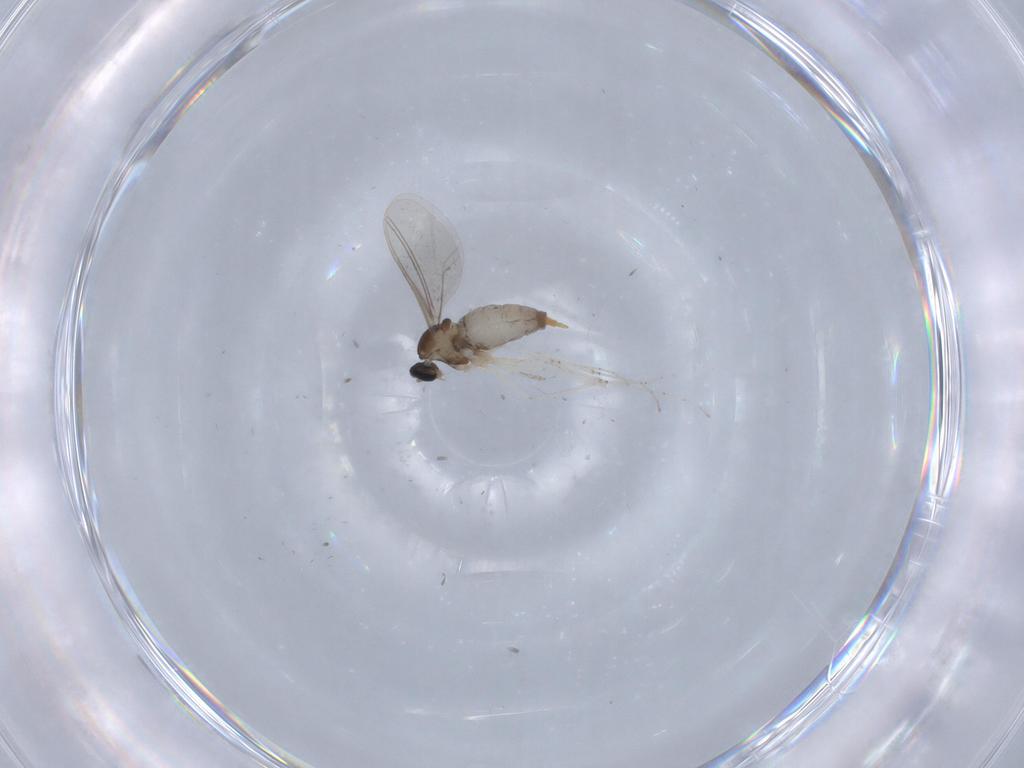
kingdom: Animalia
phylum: Arthropoda
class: Insecta
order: Diptera
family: Cecidomyiidae
